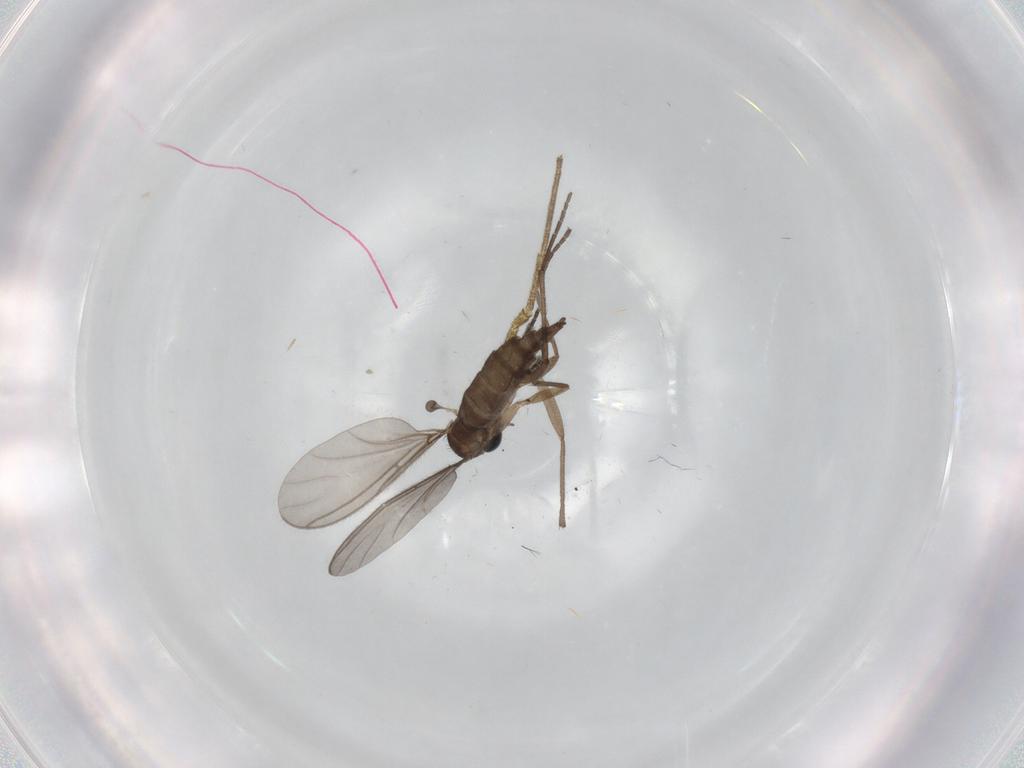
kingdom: Animalia
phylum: Arthropoda
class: Insecta
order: Diptera
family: Sciaridae
